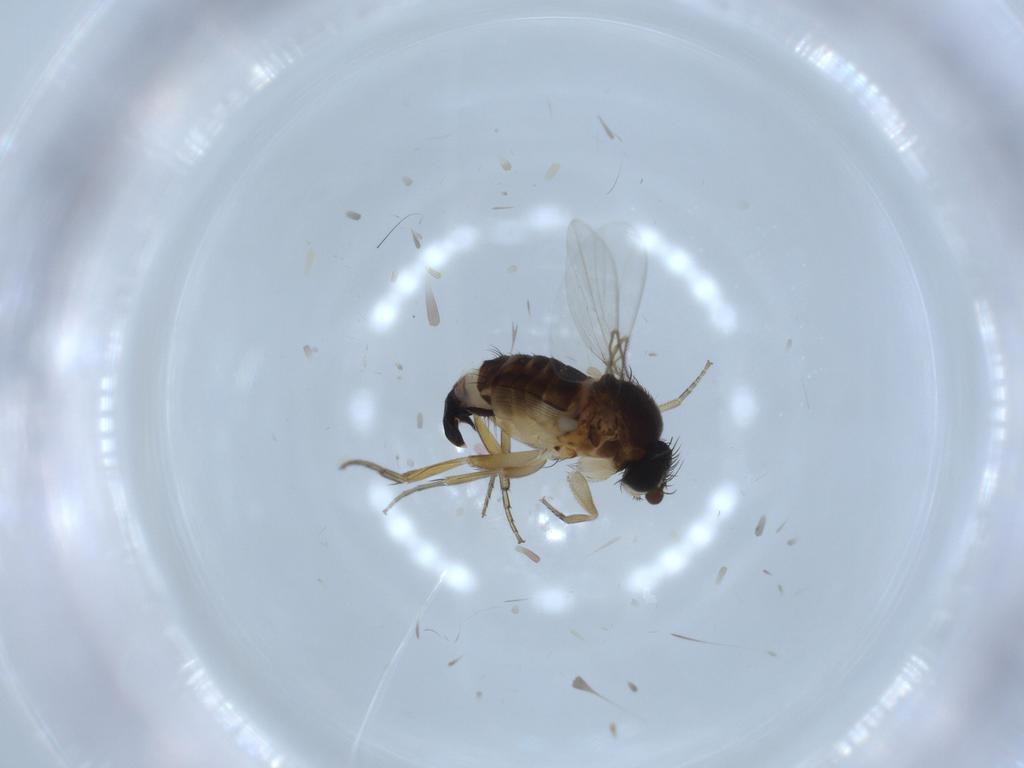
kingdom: Animalia
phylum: Arthropoda
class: Insecta
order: Diptera
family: Phoridae
